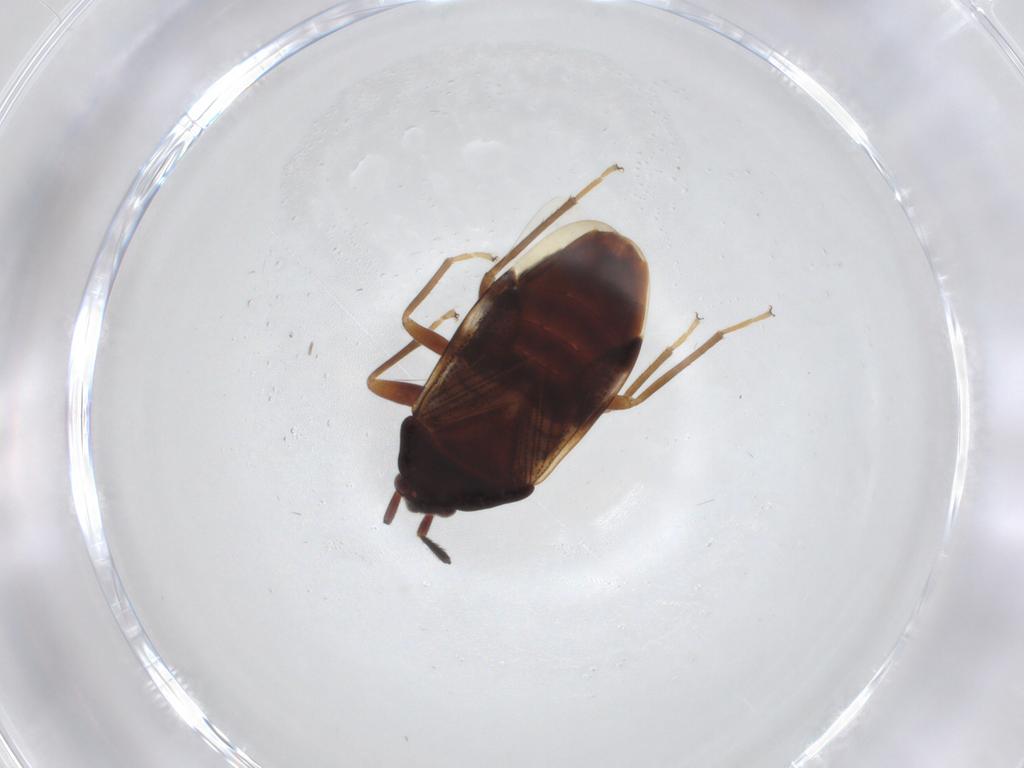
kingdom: Animalia
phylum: Arthropoda
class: Insecta
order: Hemiptera
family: Rhyparochromidae
